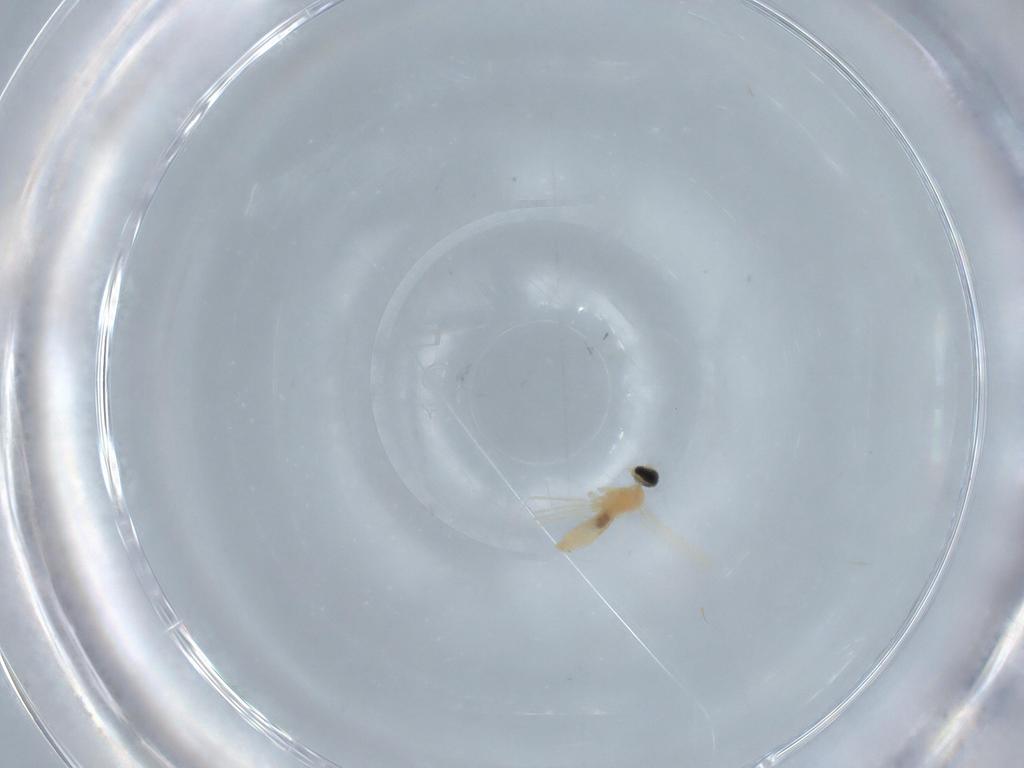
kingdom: Animalia
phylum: Arthropoda
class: Insecta
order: Diptera
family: Cecidomyiidae
